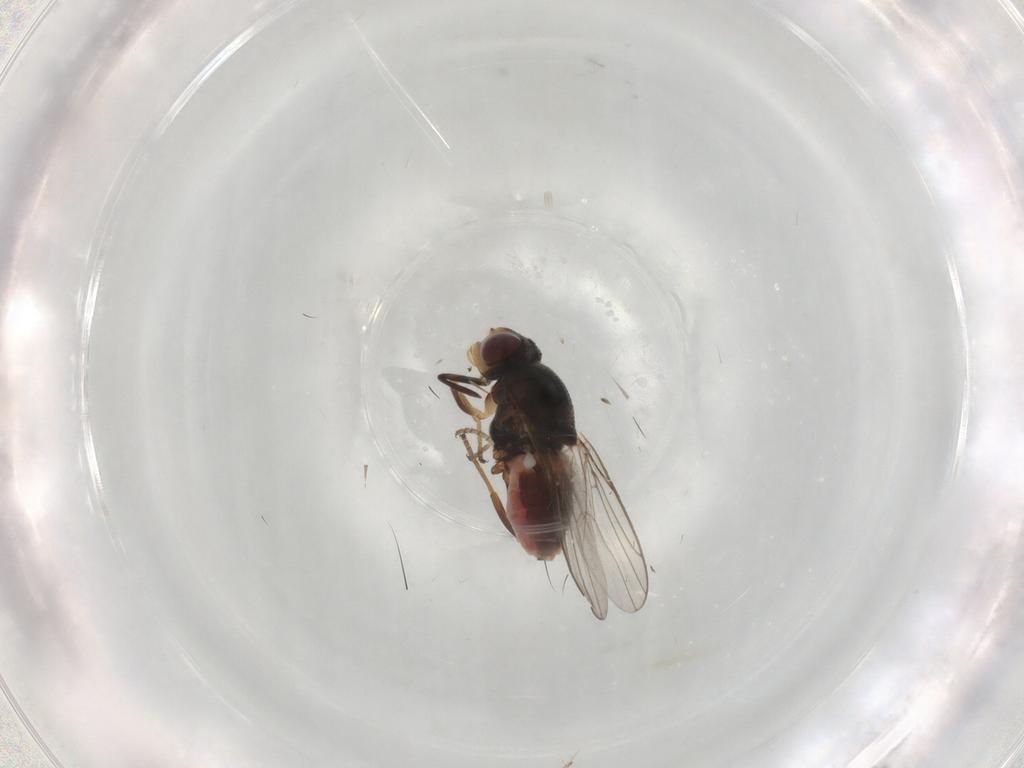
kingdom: Animalia
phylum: Arthropoda
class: Insecta
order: Diptera
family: Chloropidae
